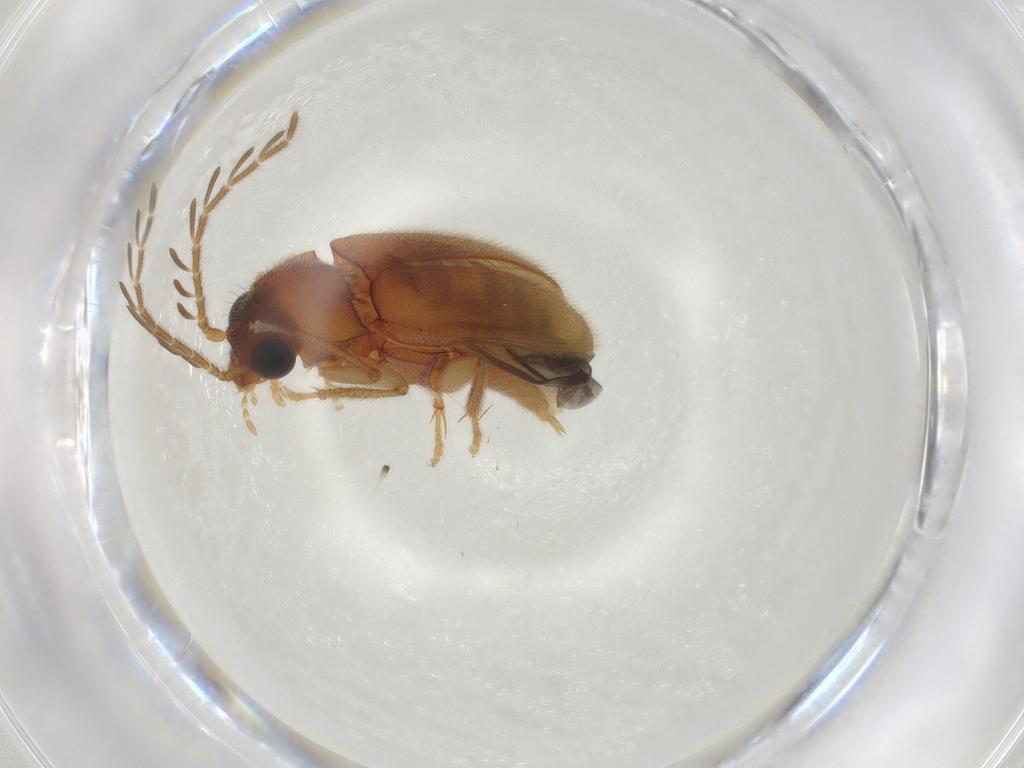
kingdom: Animalia
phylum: Arthropoda
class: Insecta
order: Coleoptera
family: Ptilodactylidae
